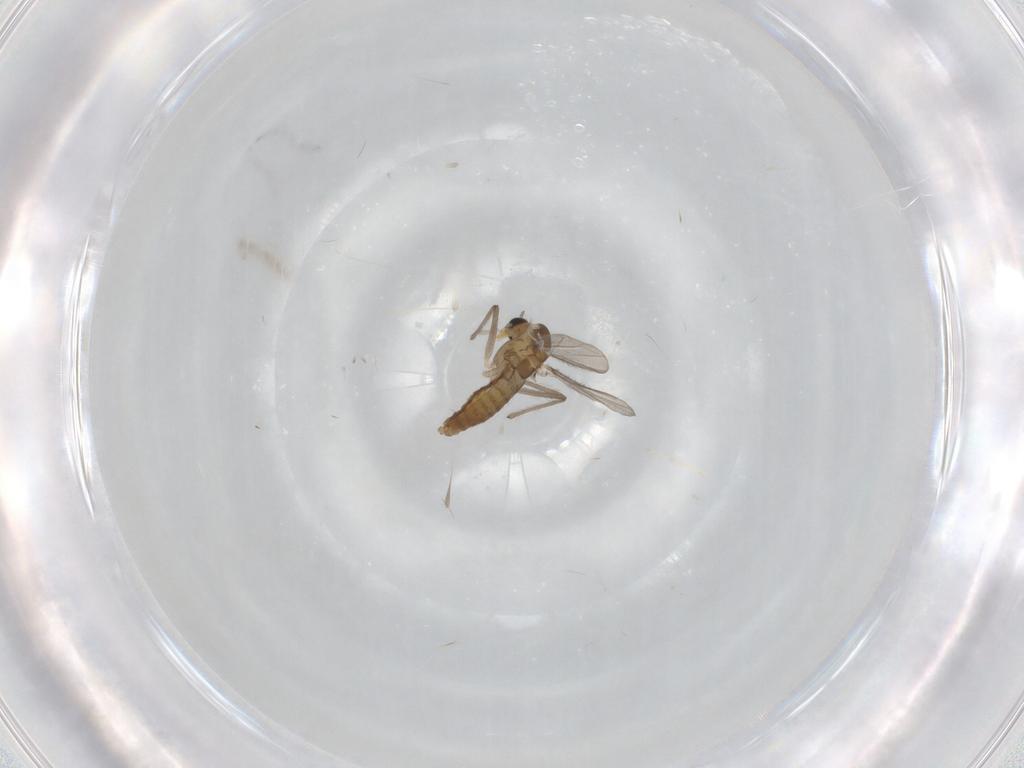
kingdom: Animalia
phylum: Arthropoda
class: Insecta
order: Diptera
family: Chironomidae
